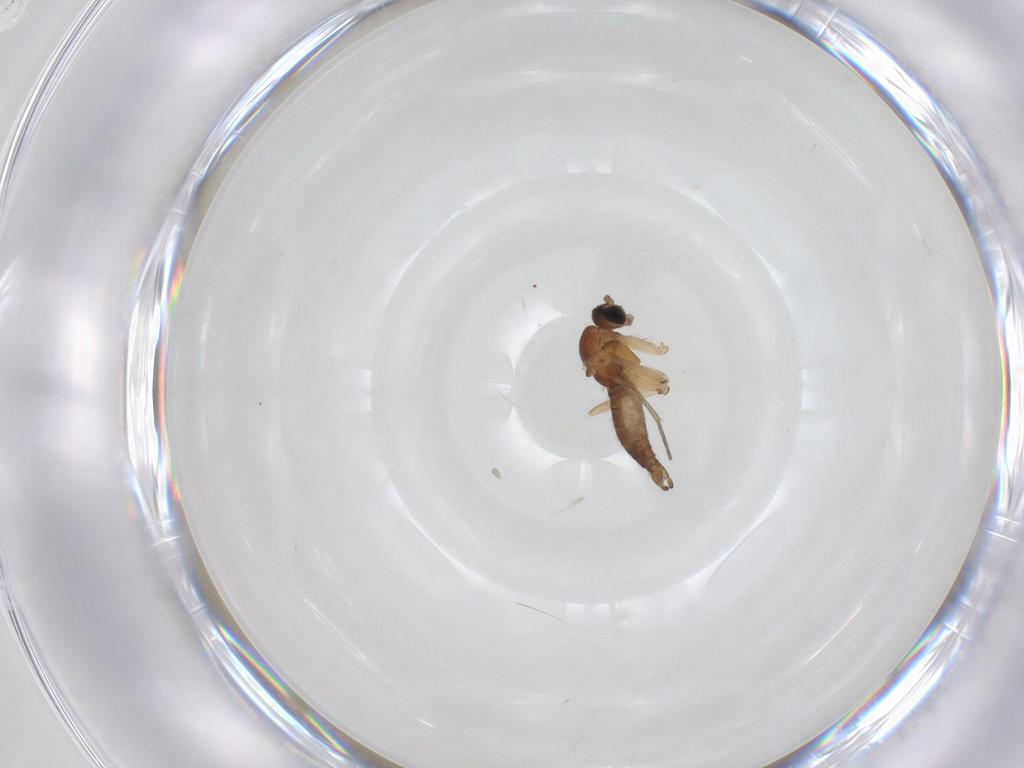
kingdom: Animalia
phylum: Arthropoda
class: Insecta
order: Diptera
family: Sciaridae
